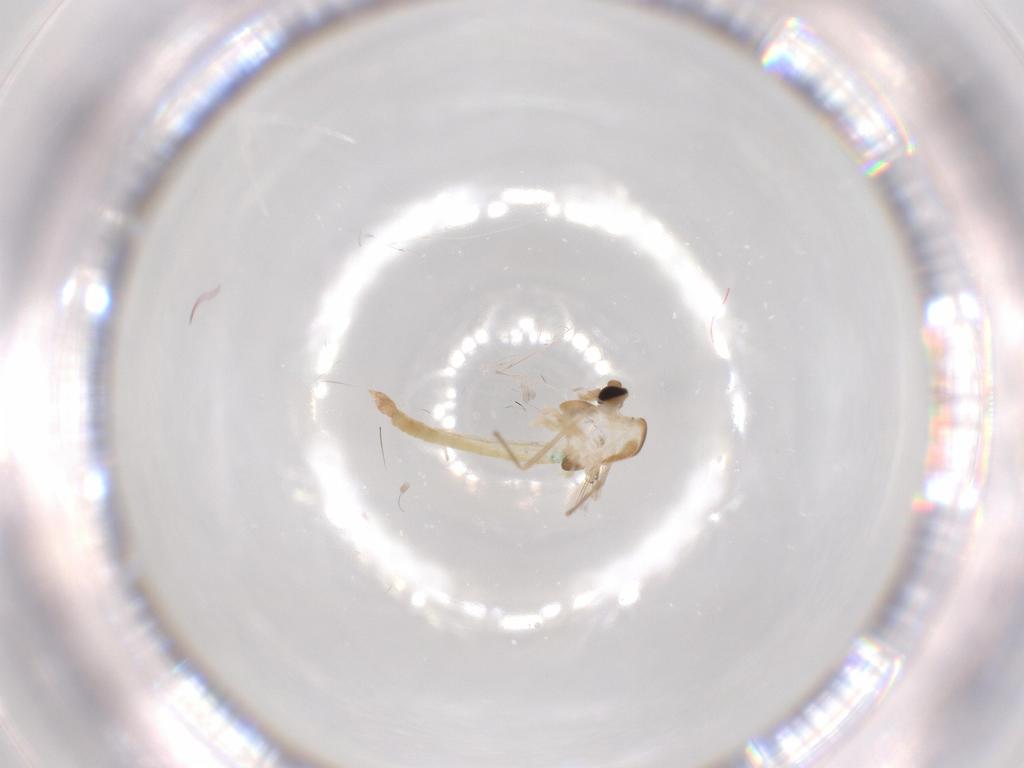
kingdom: Animalia
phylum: Arthropoda
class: Insecta
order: Diptera
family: Chironomidae
